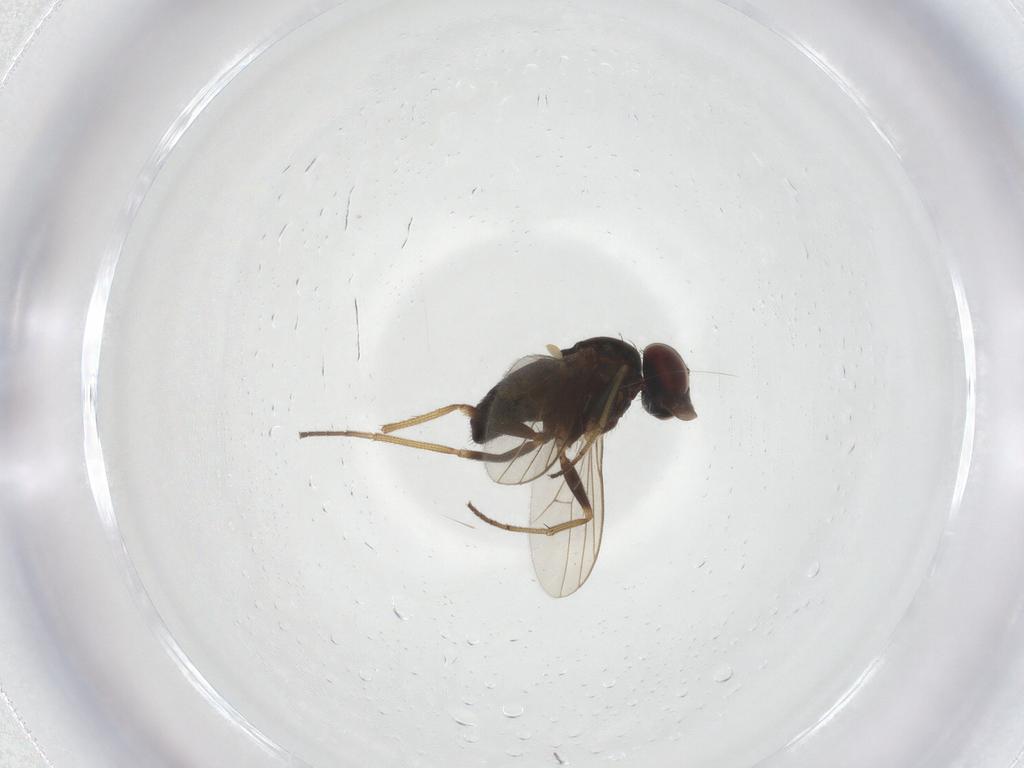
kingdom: Animalia
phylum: Arthropoda
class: Insecta
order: Diptera
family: Dolichopodidae
